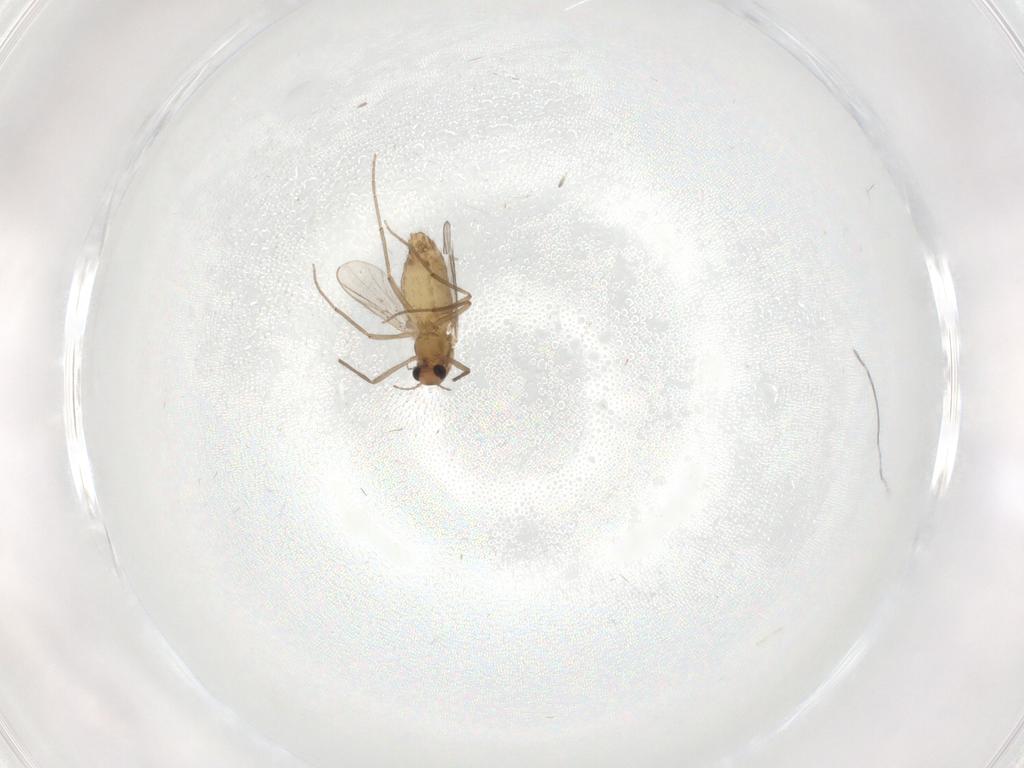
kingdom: Animalia
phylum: Arthropoda
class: Insecta
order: Diptera
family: Chironomidae
